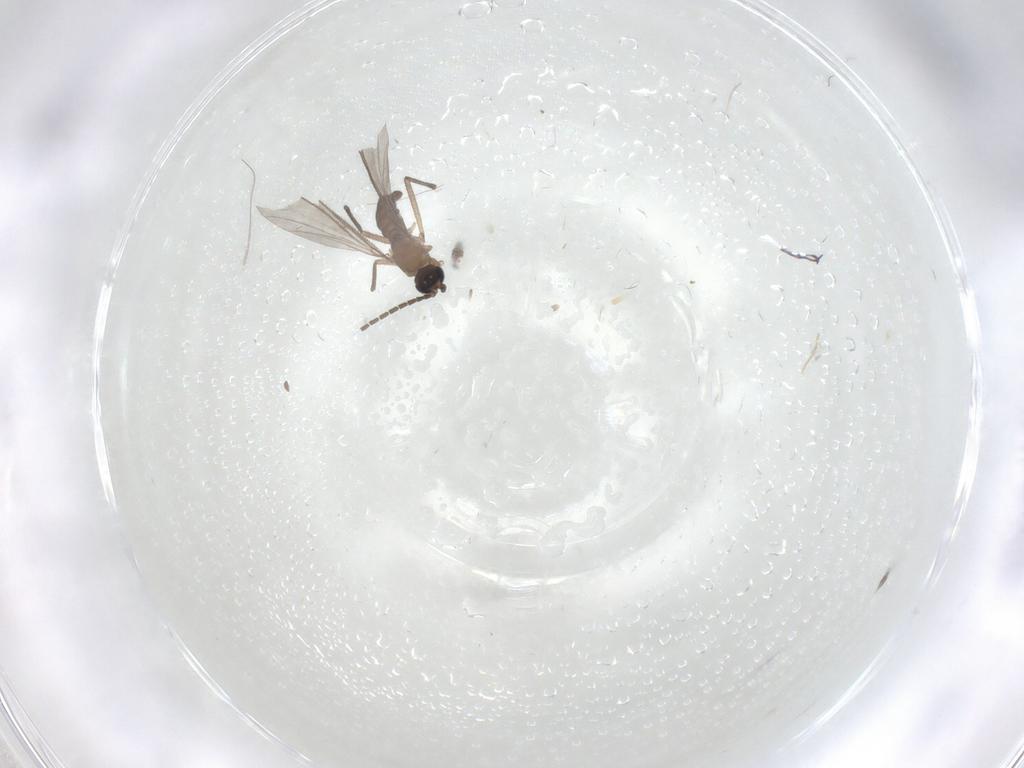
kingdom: Animalia
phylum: Arthropoda
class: Insecta
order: Diptera
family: Cecidomyiidae
